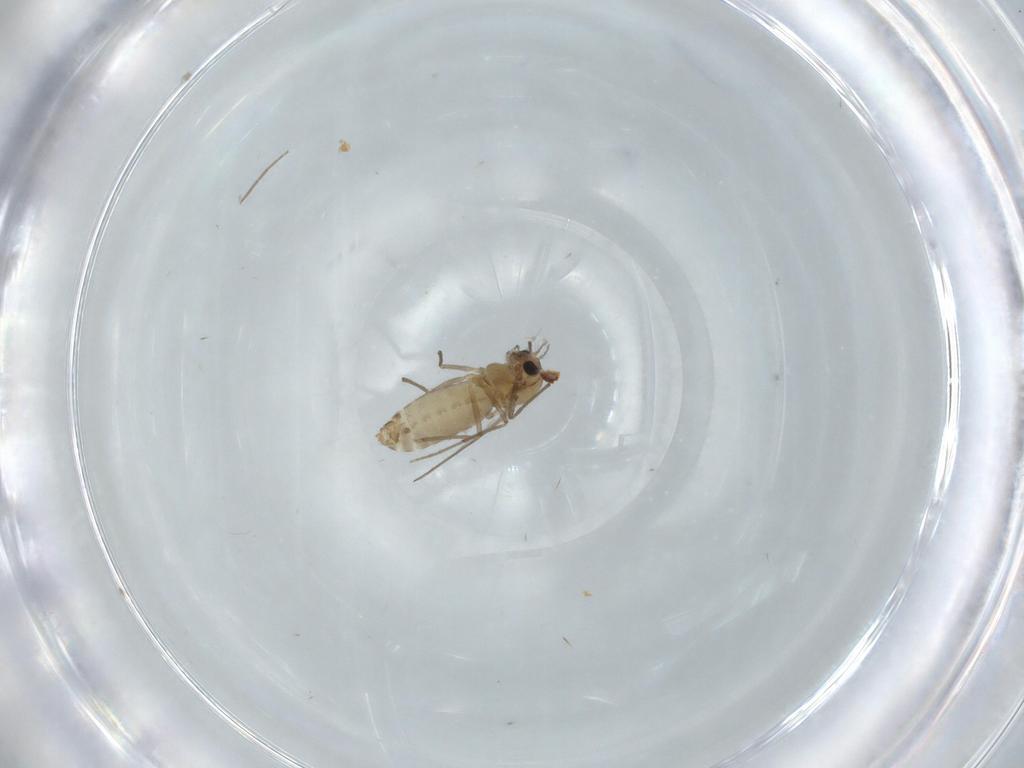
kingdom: Animalia
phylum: Arthropoda
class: Insecta
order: Diptera
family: Chironomidae
